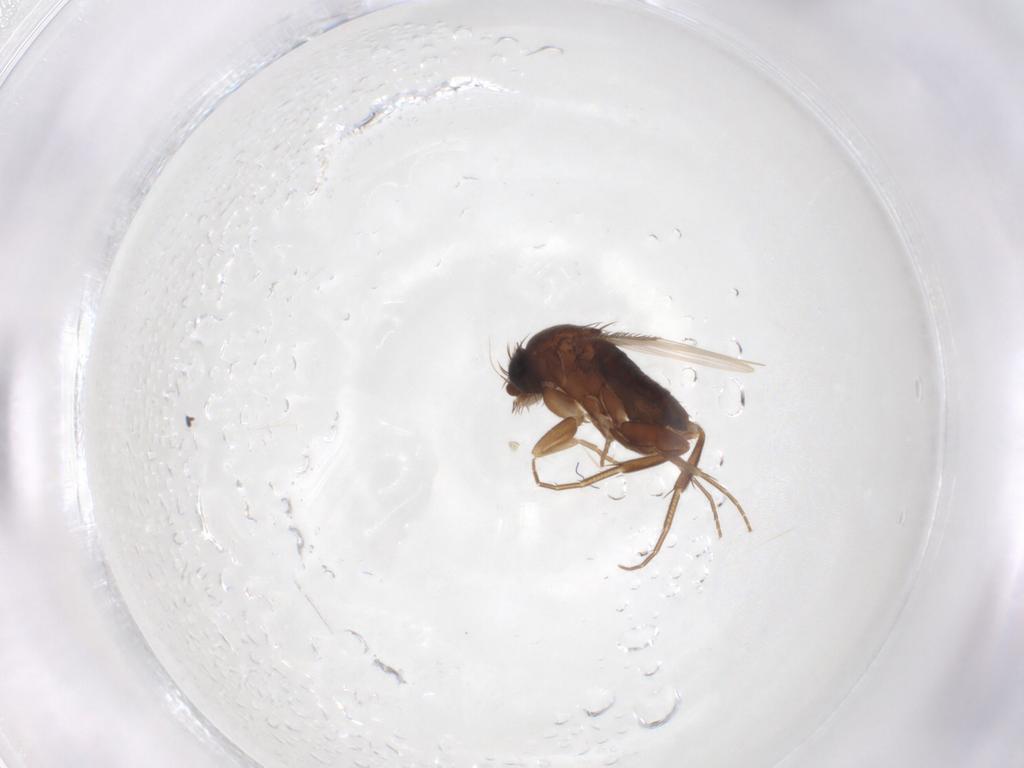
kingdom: Animalia
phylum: Arthropoda
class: Insecta
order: Diptera
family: Phoridae
